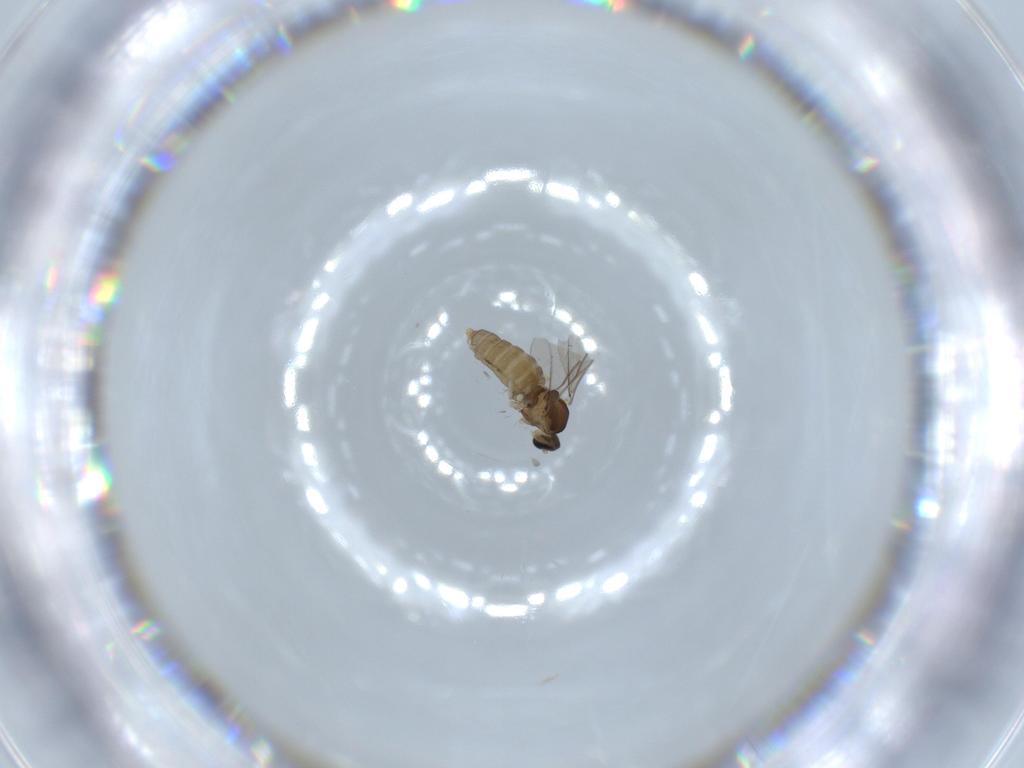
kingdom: Animalia
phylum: Arthropoda
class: Insecta
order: Diptera
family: Cecidomyiidae
